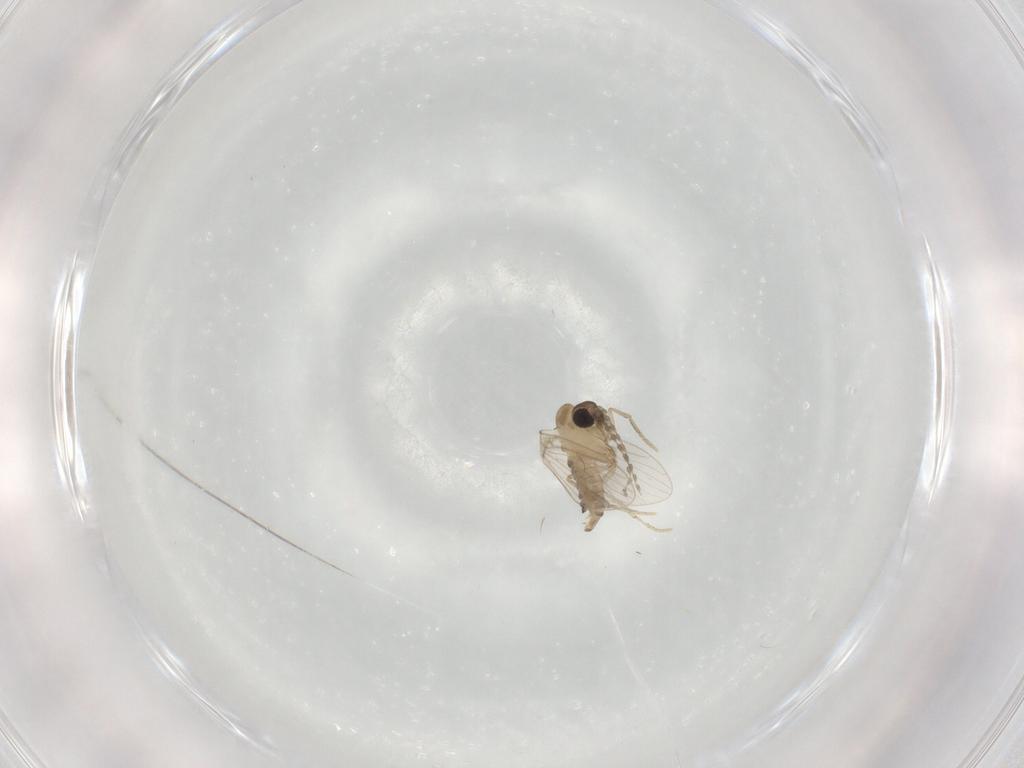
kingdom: Animalia
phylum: Arthropoda
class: Insecta
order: Diptera
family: Psychodidae
